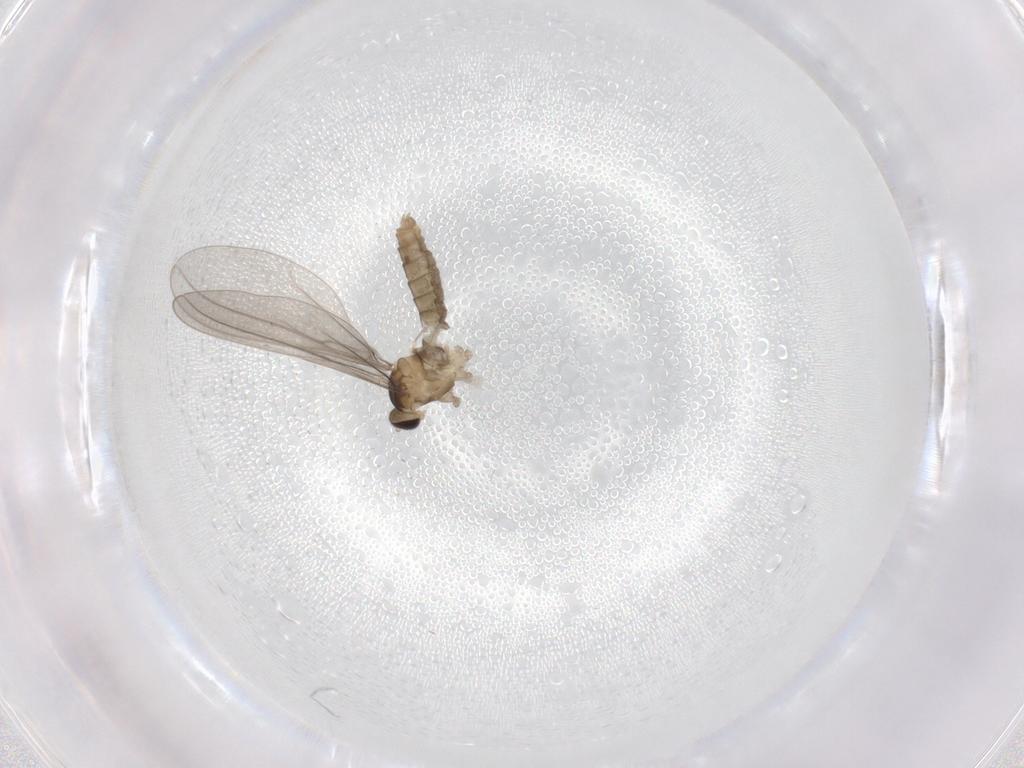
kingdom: Animalia
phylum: Arthropoda
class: Insecta
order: Diptera
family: Cecidomyiidae
